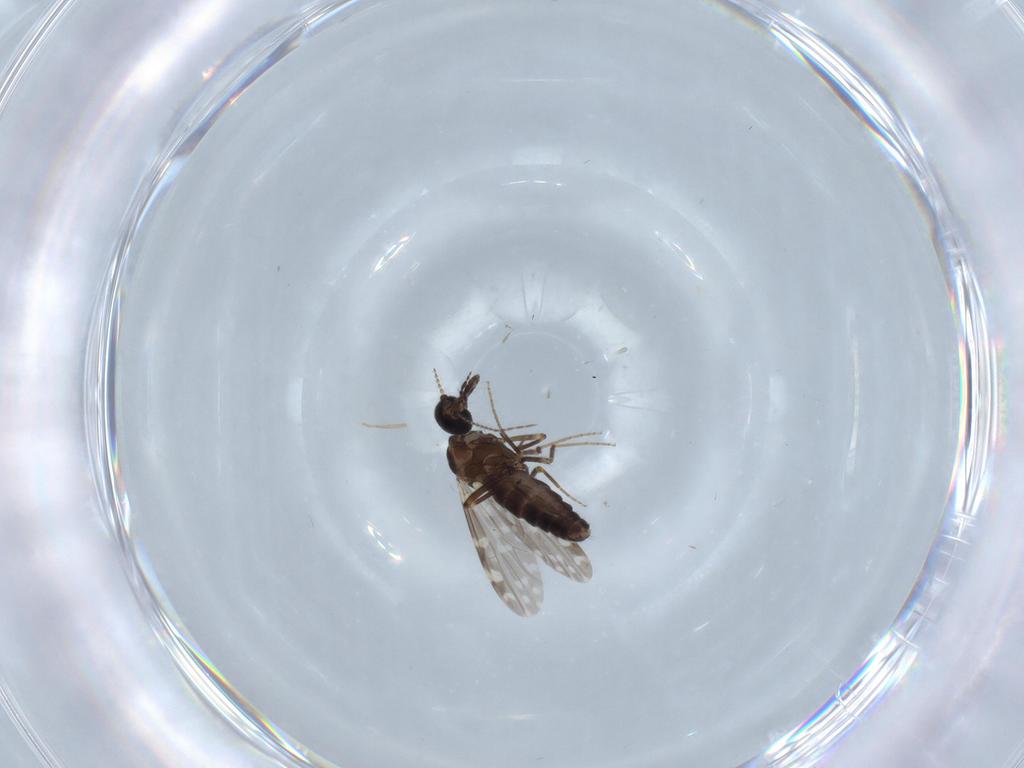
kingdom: Animalia
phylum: Arthropoda
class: Insecta
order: Diptera
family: Ceratopogonidae
